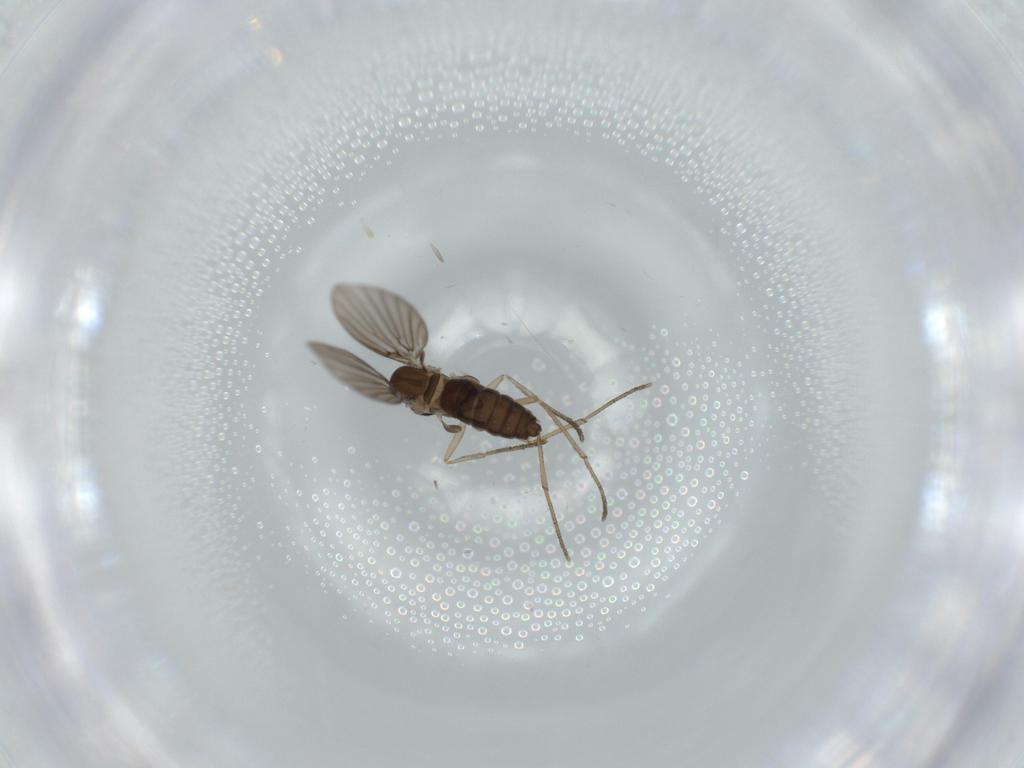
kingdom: Animalia
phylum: Arthropoda
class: Insecta
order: Diptera
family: Psychodidae
